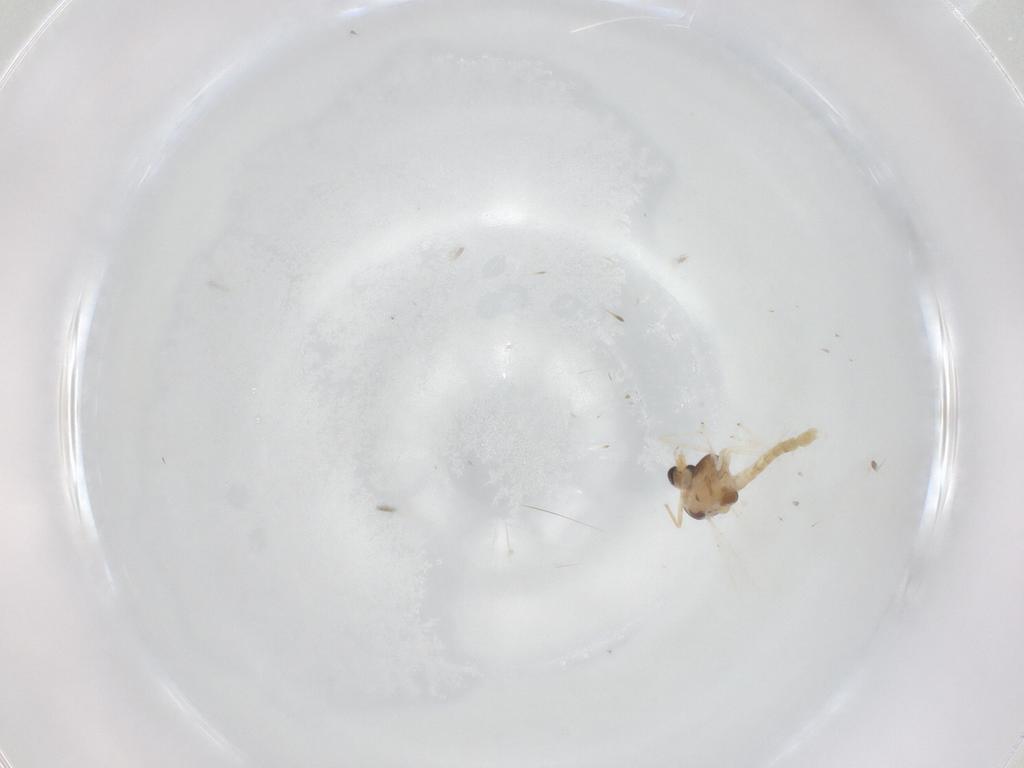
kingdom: Animalia
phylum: Arthropoda
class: Insecta
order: Diptera
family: Chironomidae
